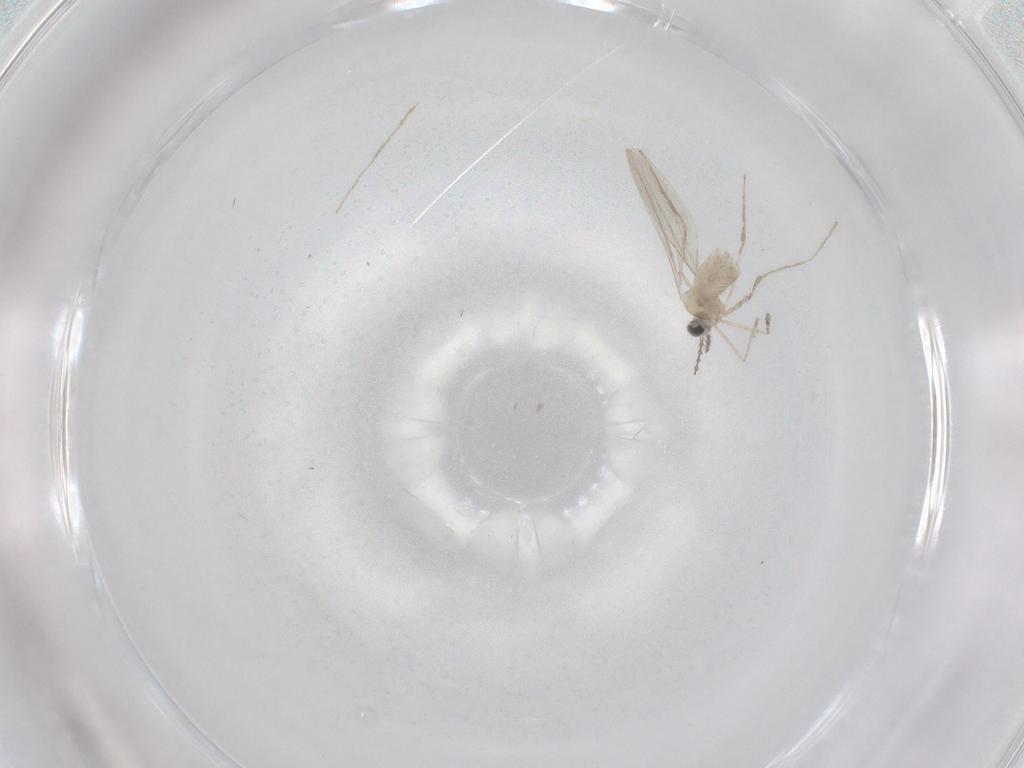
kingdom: Animalia
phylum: Arthropoda
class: Insecta
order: Diptera
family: Cecidomyiidae
